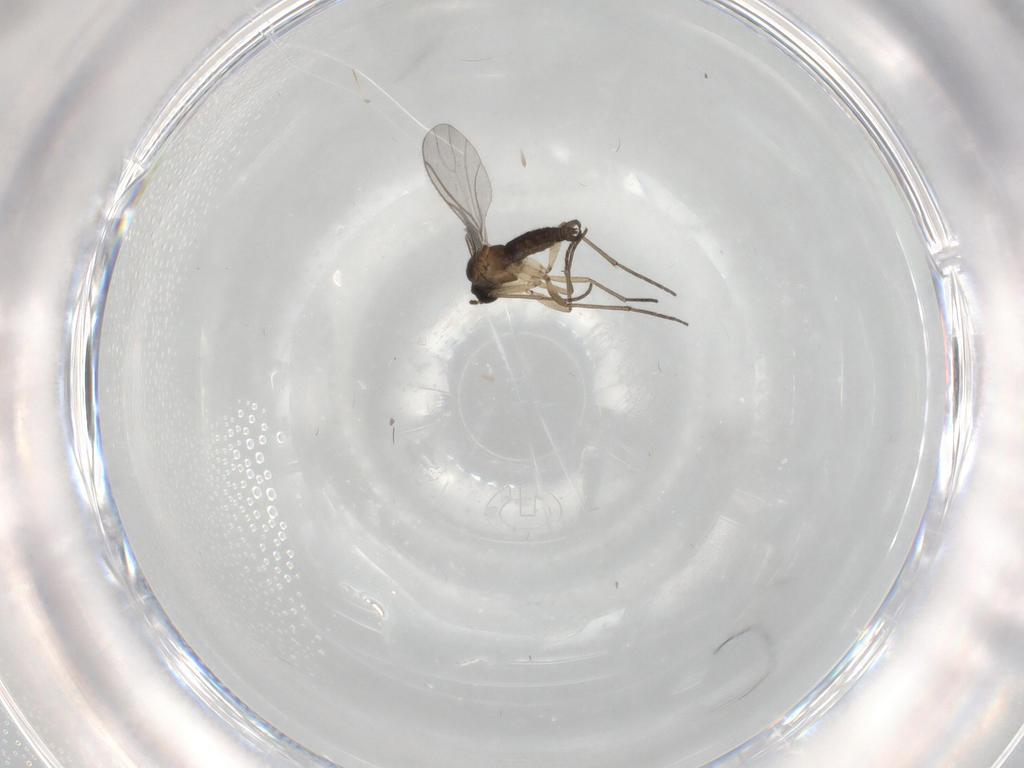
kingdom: Animalia
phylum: Arthropoda
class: Insecta
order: Diptera
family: Sciaridae
